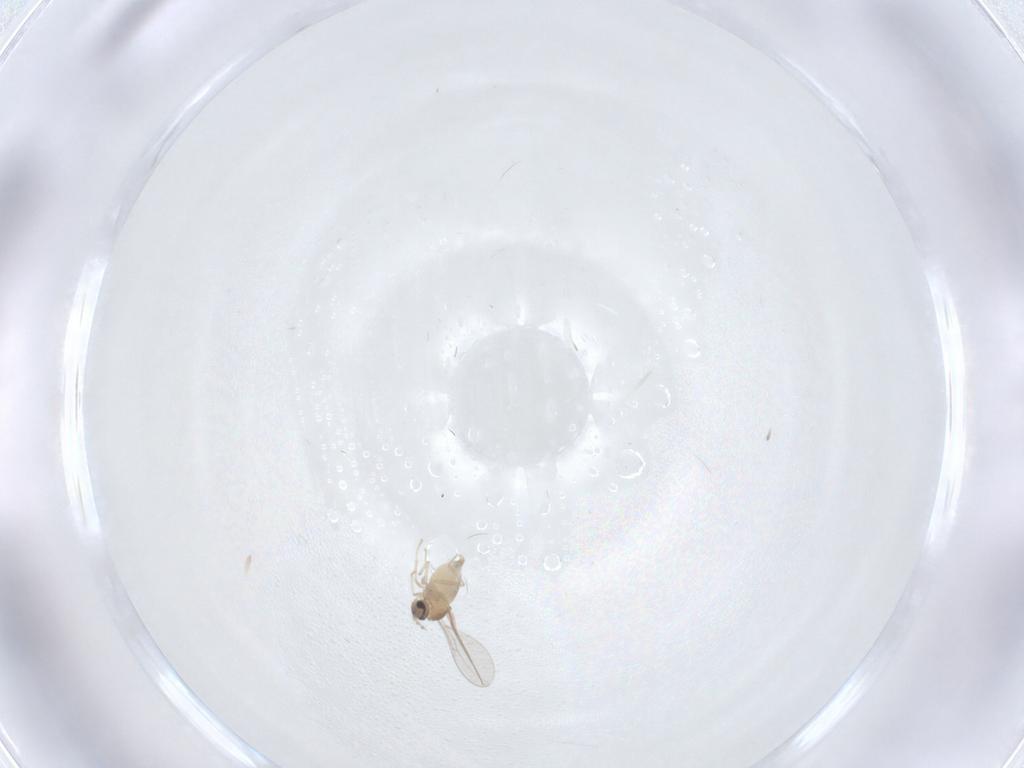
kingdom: Animalia
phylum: Arthropoda
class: Insecta
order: Diptera
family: Cecidomyiidae
